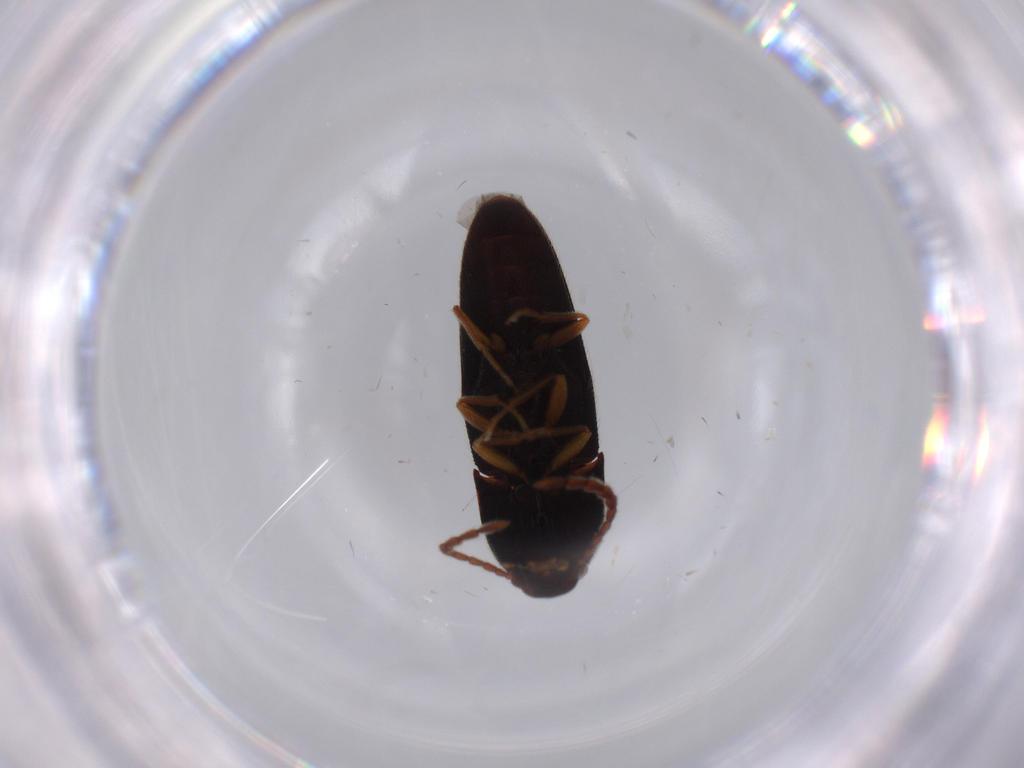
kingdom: Animalia
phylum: Arthropoda
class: Insecta
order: Coleoptera
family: Elateridae
